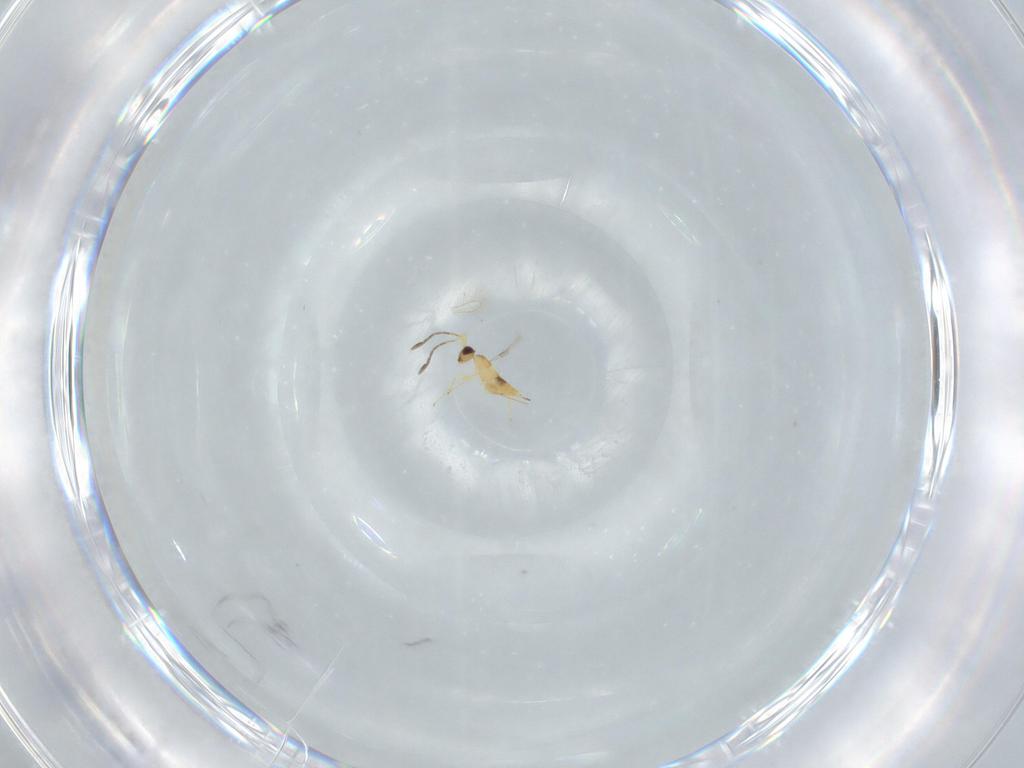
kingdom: Animalia
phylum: Arthropoda
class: Insecta
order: Hymenoptera
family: Mymaridae
